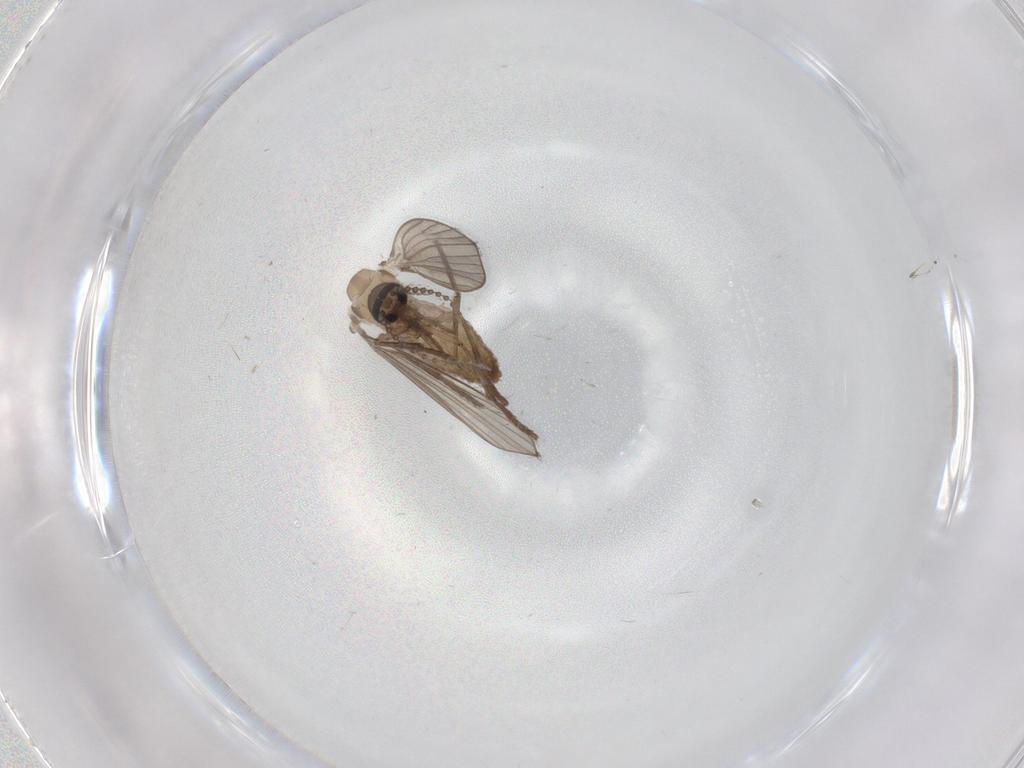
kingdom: Animalia
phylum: Arthropoda
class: Insecta
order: Diptera
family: Psychodidae
